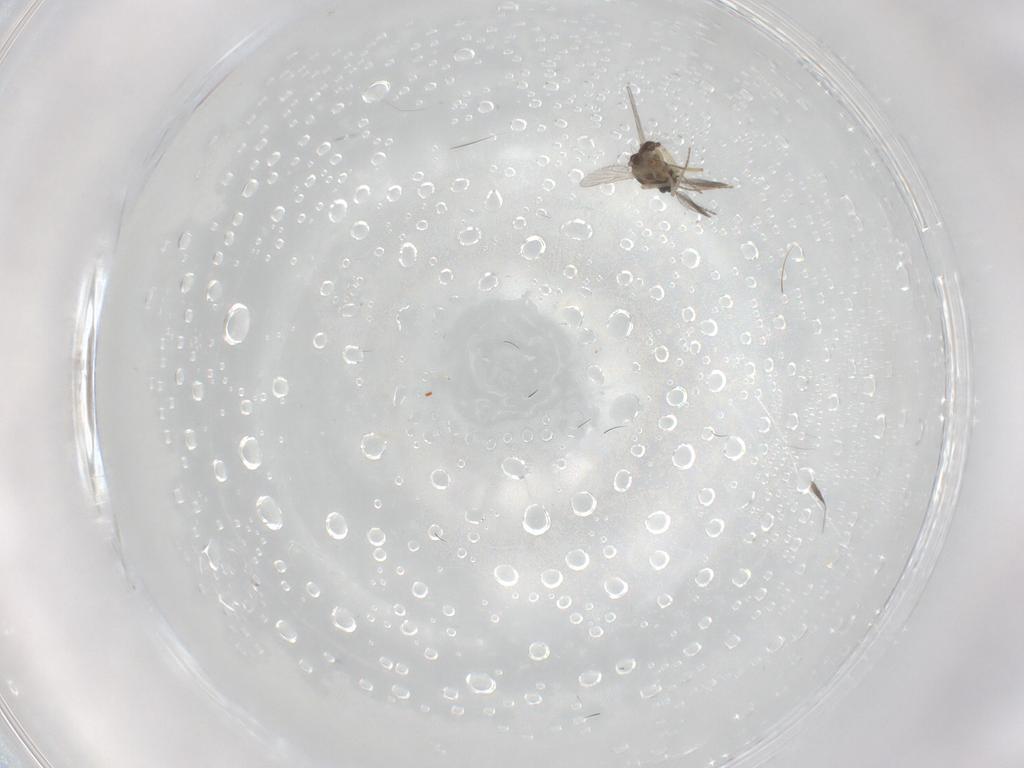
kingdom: Animalia
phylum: Arthropoda
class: Insecta
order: Diptera
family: Ceratopogonidae
